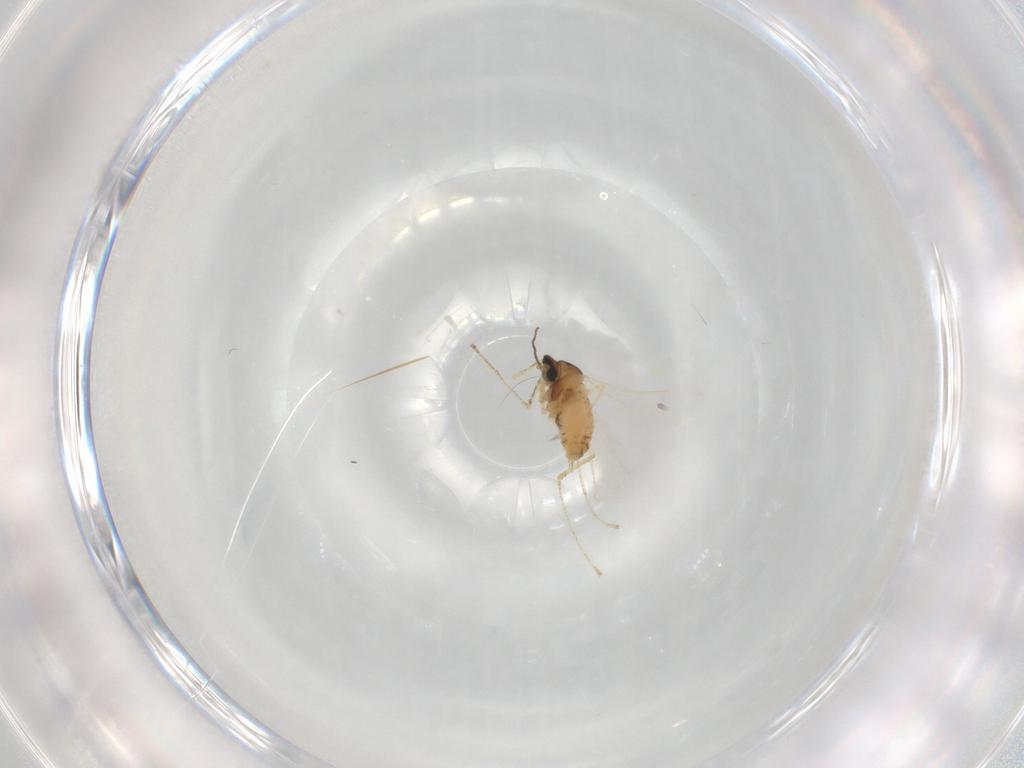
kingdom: Animalia
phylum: Arthropoda
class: Insecta
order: Diptera
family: Cecidomyiidae
